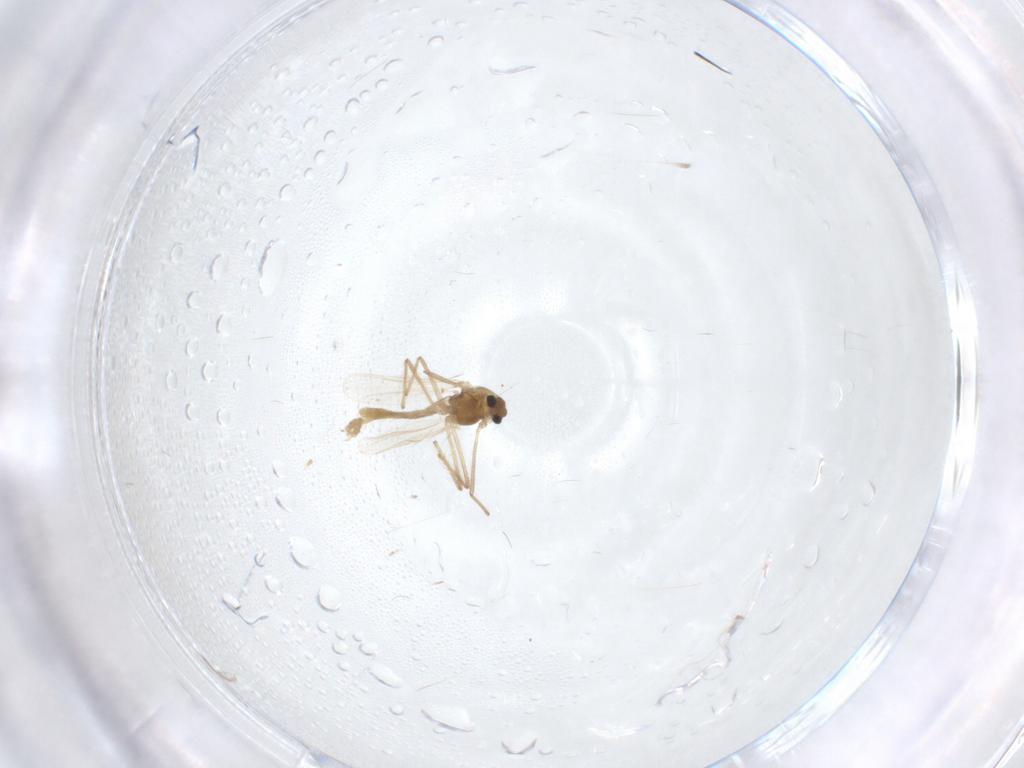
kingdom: Animalia
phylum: Arthropoda
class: Insecta
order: Diptera
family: Chironomidae
